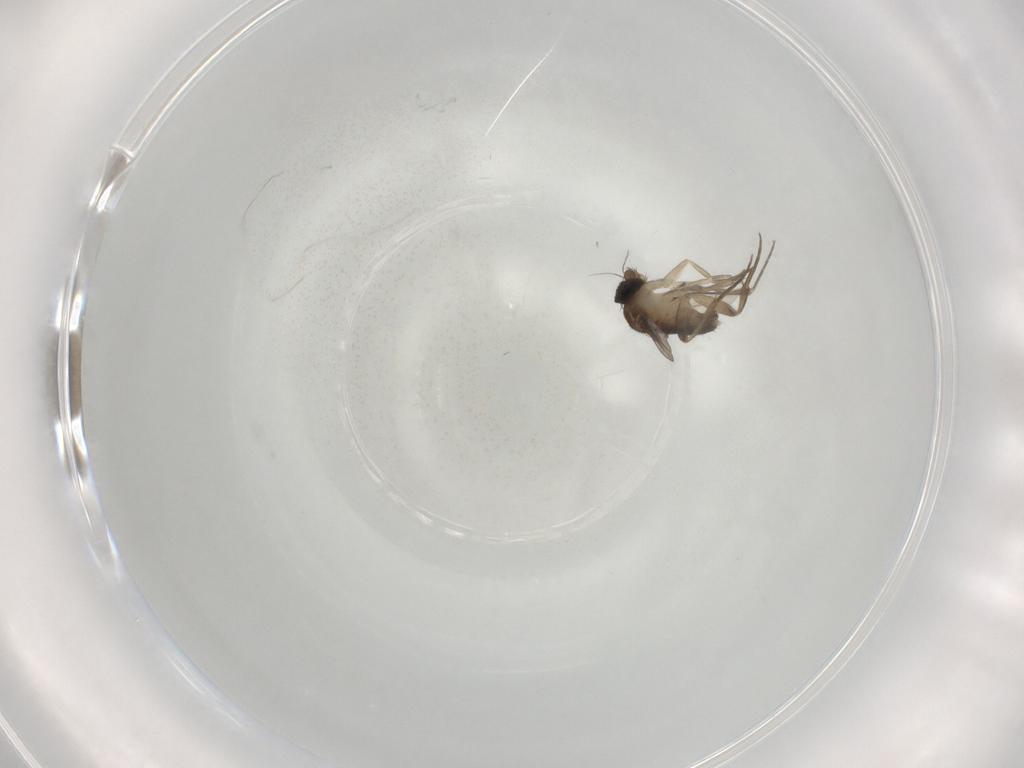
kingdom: Animalia
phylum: Arthropoda
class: Insecta
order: Diptera
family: Phoridae
